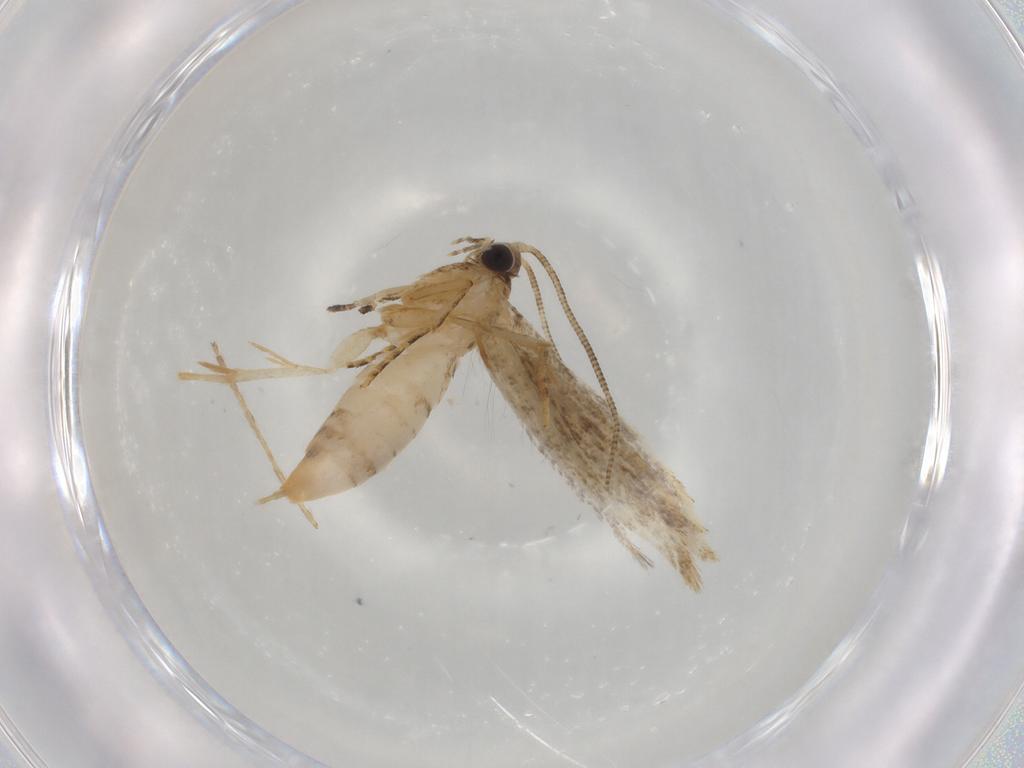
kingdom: Animalia
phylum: Arthropoda
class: Insecta
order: Lepidoptera
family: Tineidae
